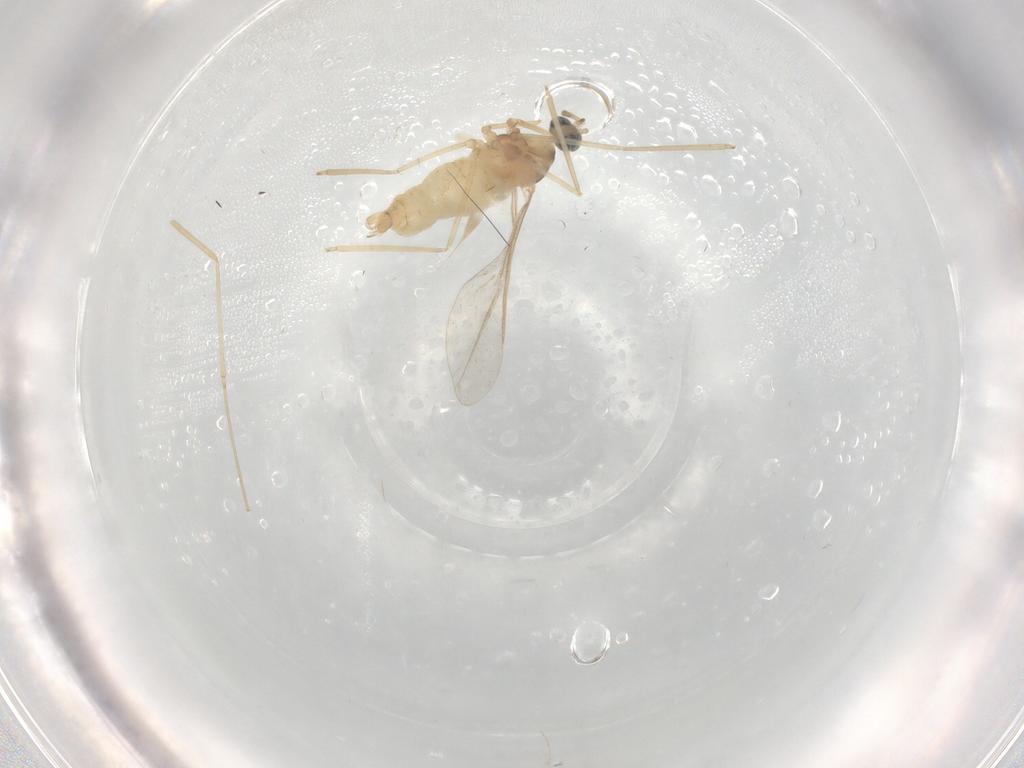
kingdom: Animalia
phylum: Arthropoda
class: Insecta
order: Diptera
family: Cecidomyiidae
